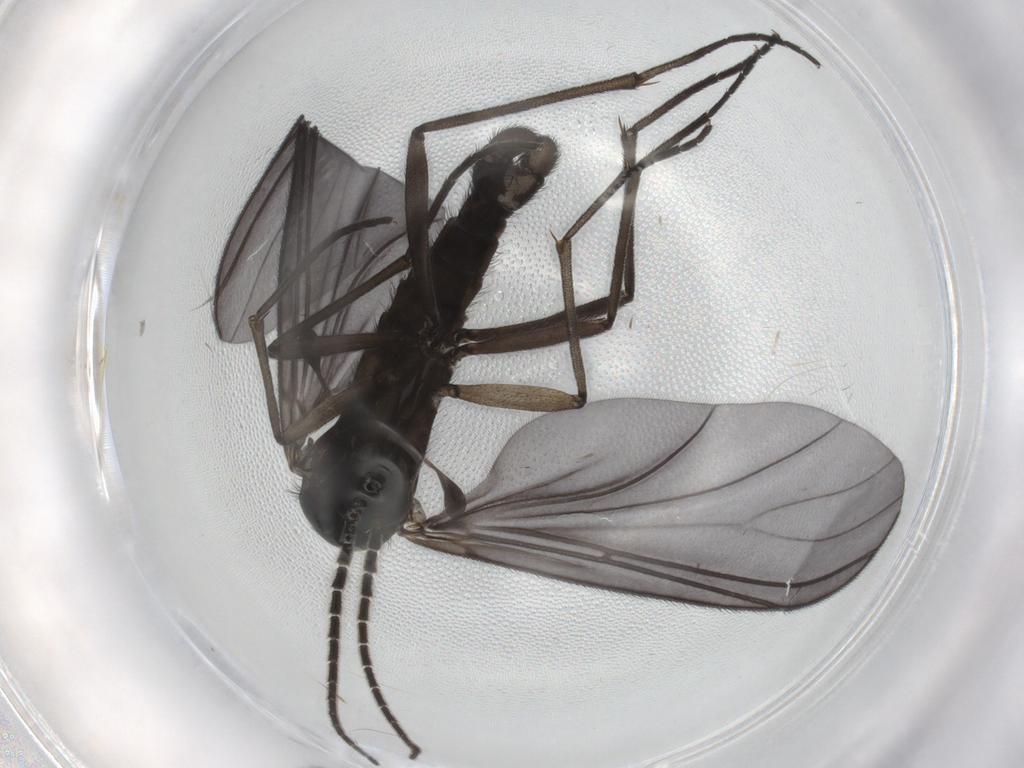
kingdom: Animalia
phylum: Arthropoda
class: Insecta
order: Diptera
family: Sciaridae
